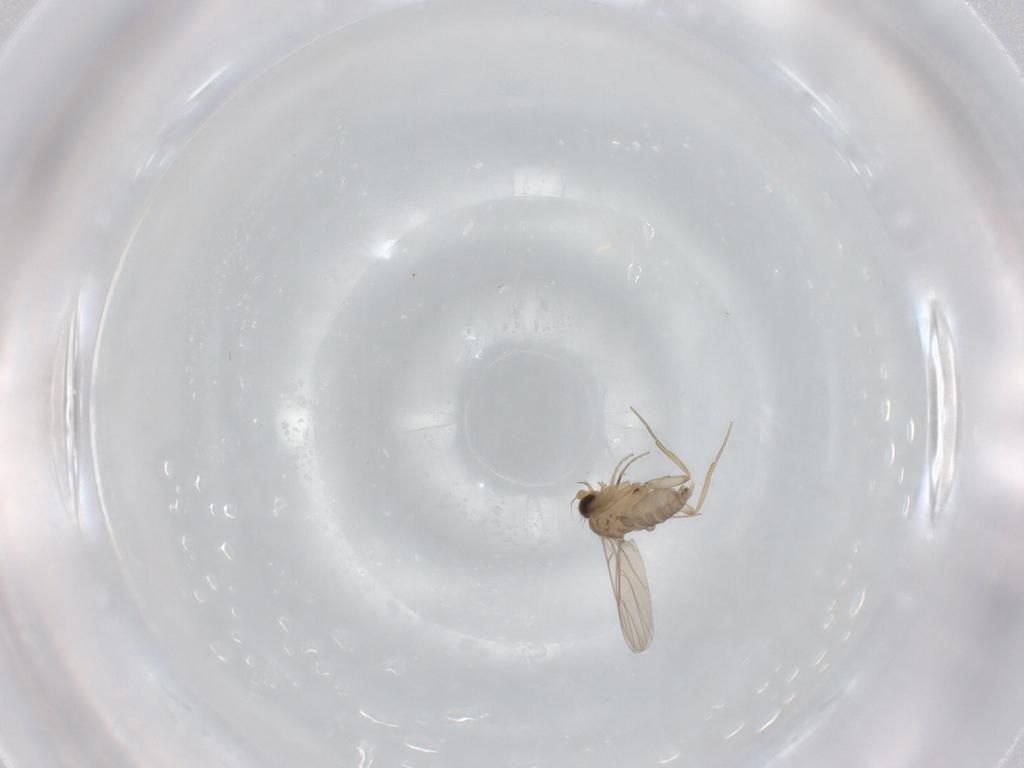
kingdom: Animalia
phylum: Arthropoda
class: Insecta
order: Diptera
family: Phoridae
